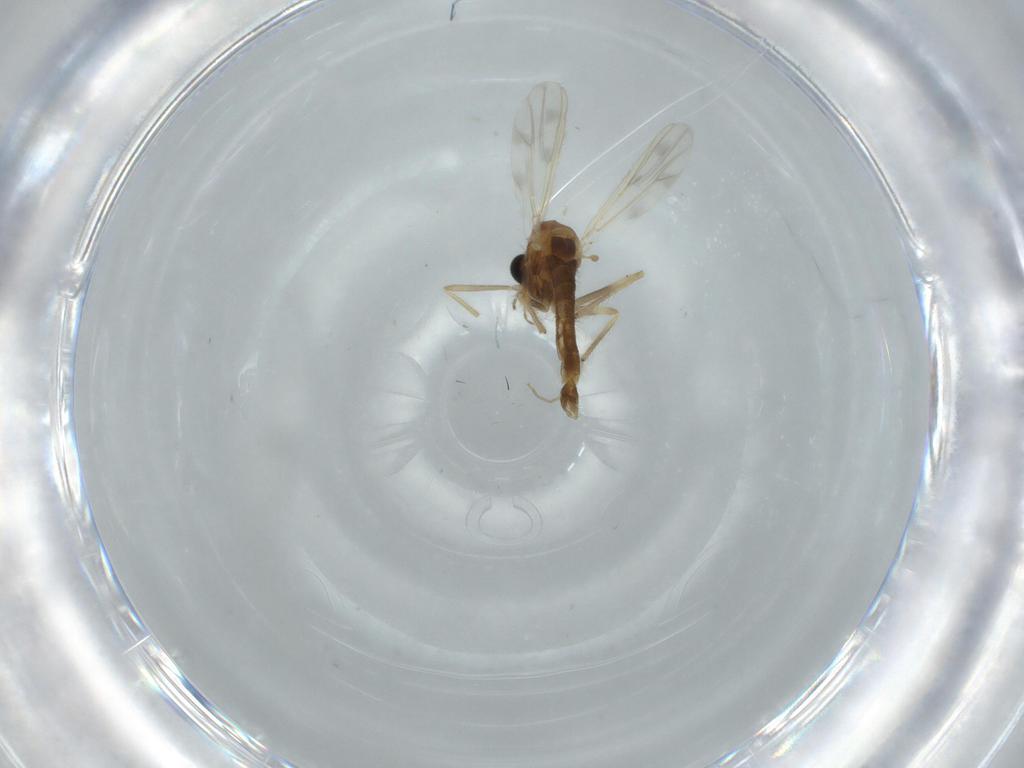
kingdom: Animalia
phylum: Arthropoda
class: Insecta
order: Diptera
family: Chironomidae
